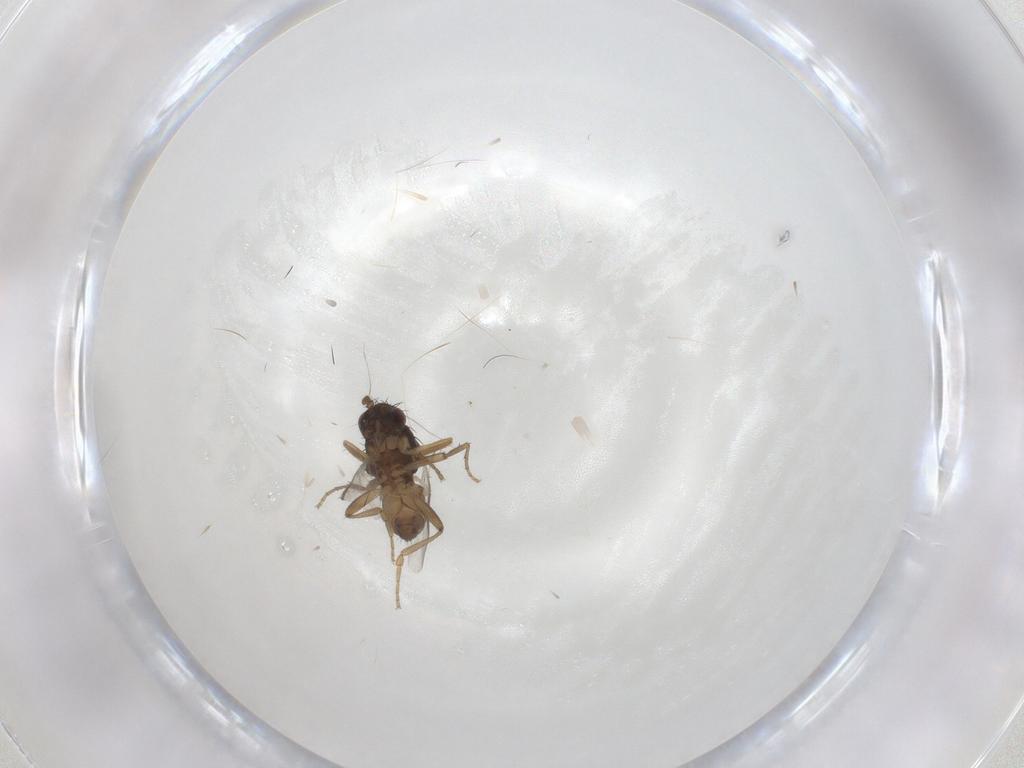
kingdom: Animalia
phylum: Arthropoda
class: Insecta
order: Diptera
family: Sphaeroceridae
